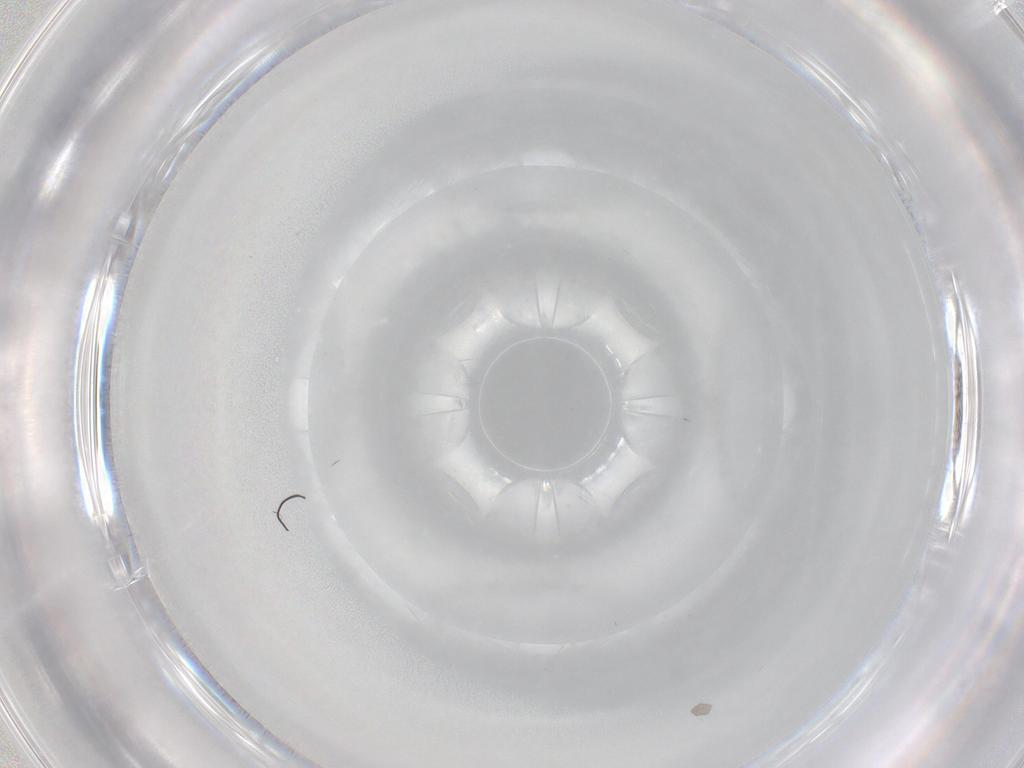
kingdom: Animalia
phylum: Arthropoda
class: Insecta
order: Psocodea
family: Lepidopsocidae
